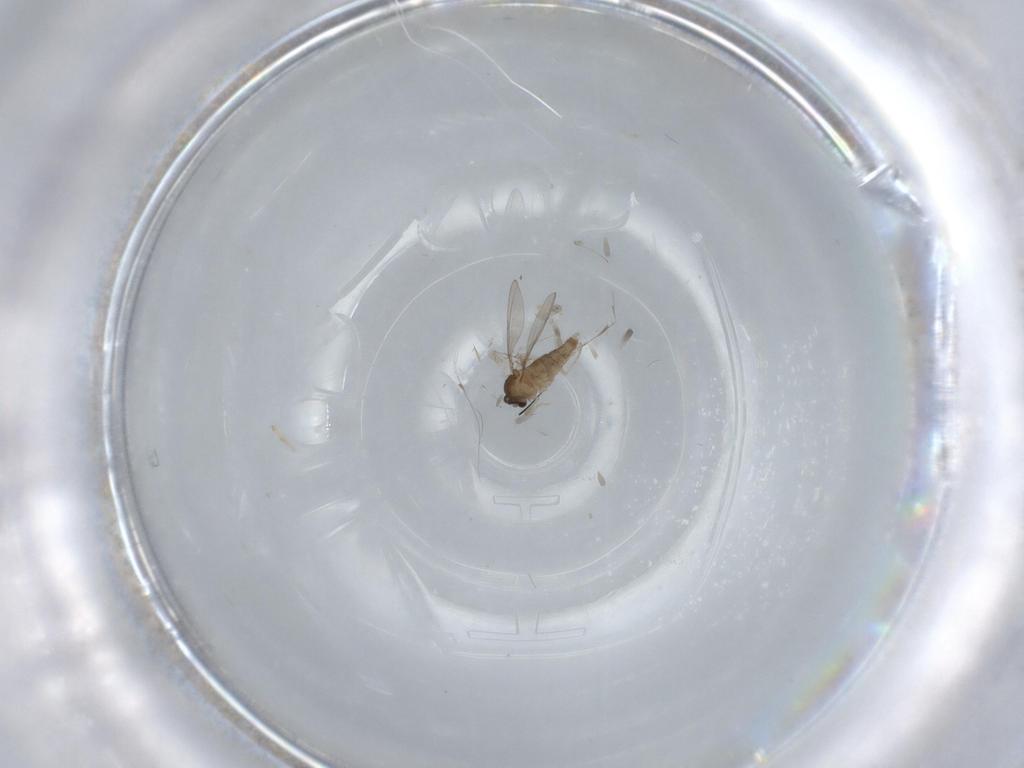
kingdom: Animalia
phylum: Arthropoda
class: Insecta
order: Diptera
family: Cecidomyiidae
